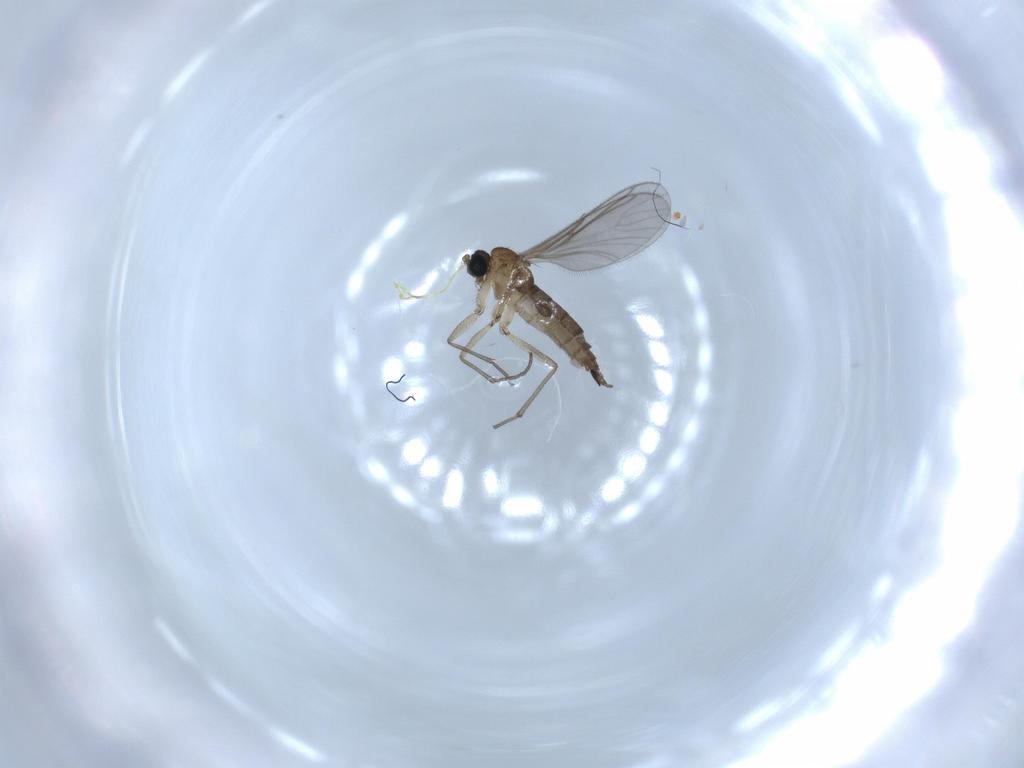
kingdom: Animalia
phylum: Arthropoda
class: Insecta
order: Diptera
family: Sciaridae
